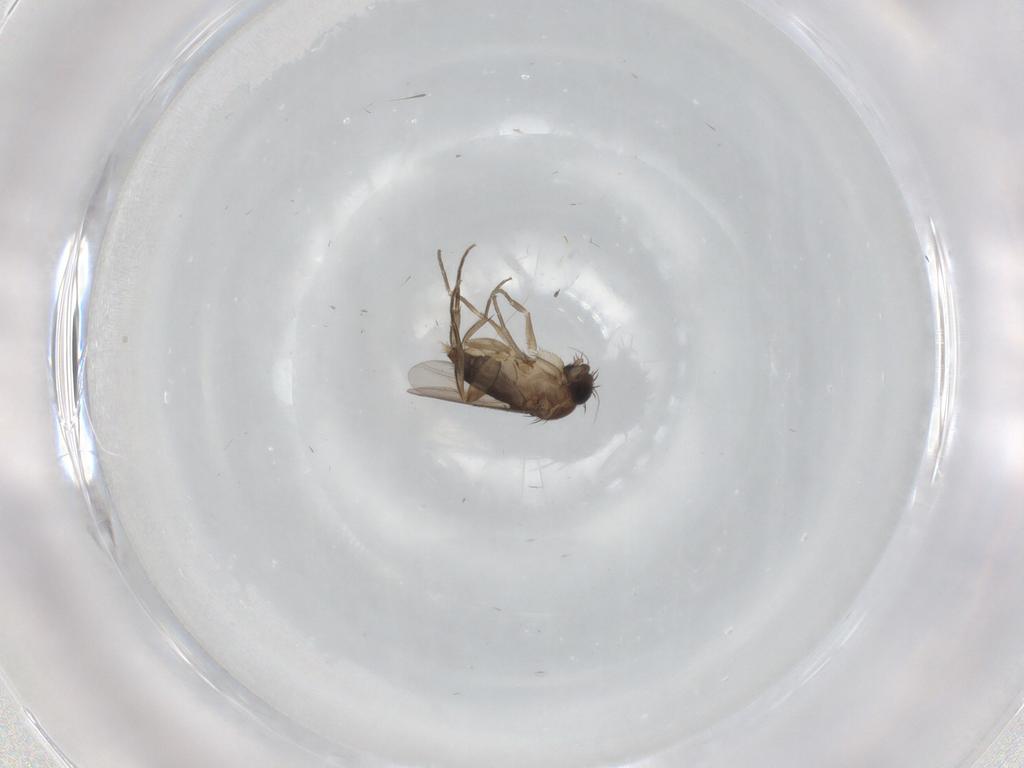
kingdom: Animalia
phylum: Arthropoda
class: Insecta
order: Diptera
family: Phoridae
